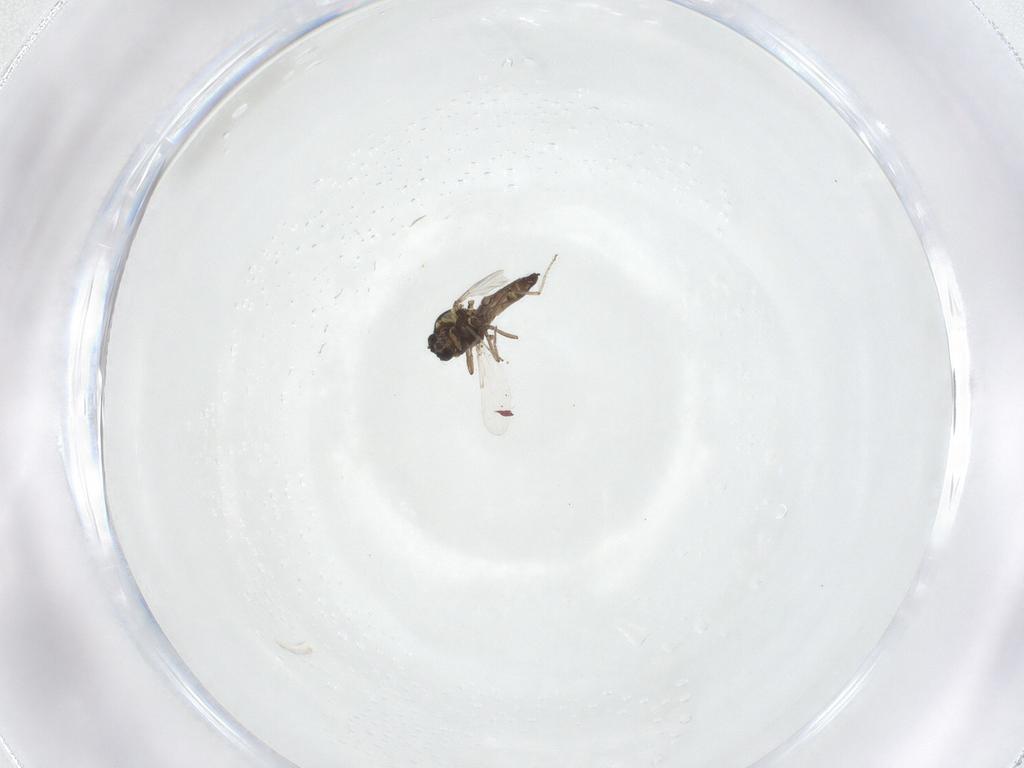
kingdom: Animalia
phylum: Arthropoda
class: Insecta
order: Diptera
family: Ceratopogonidae
